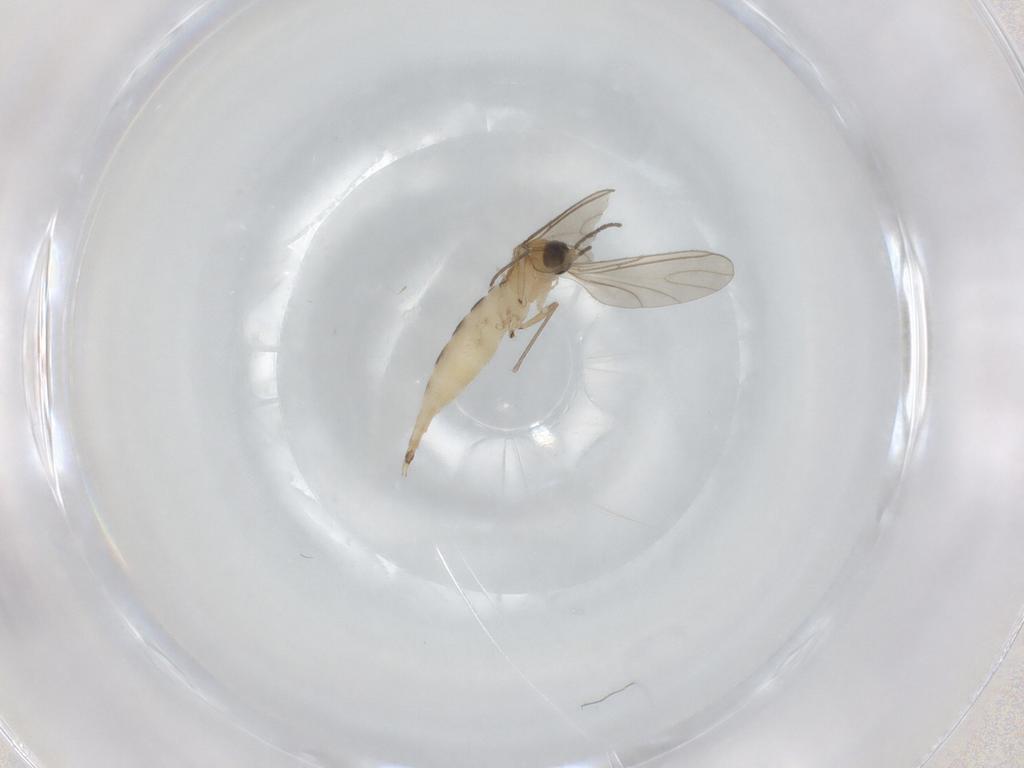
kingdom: Animalia
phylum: Arthropoda
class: Insecta
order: Diptera
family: Sciaridae
